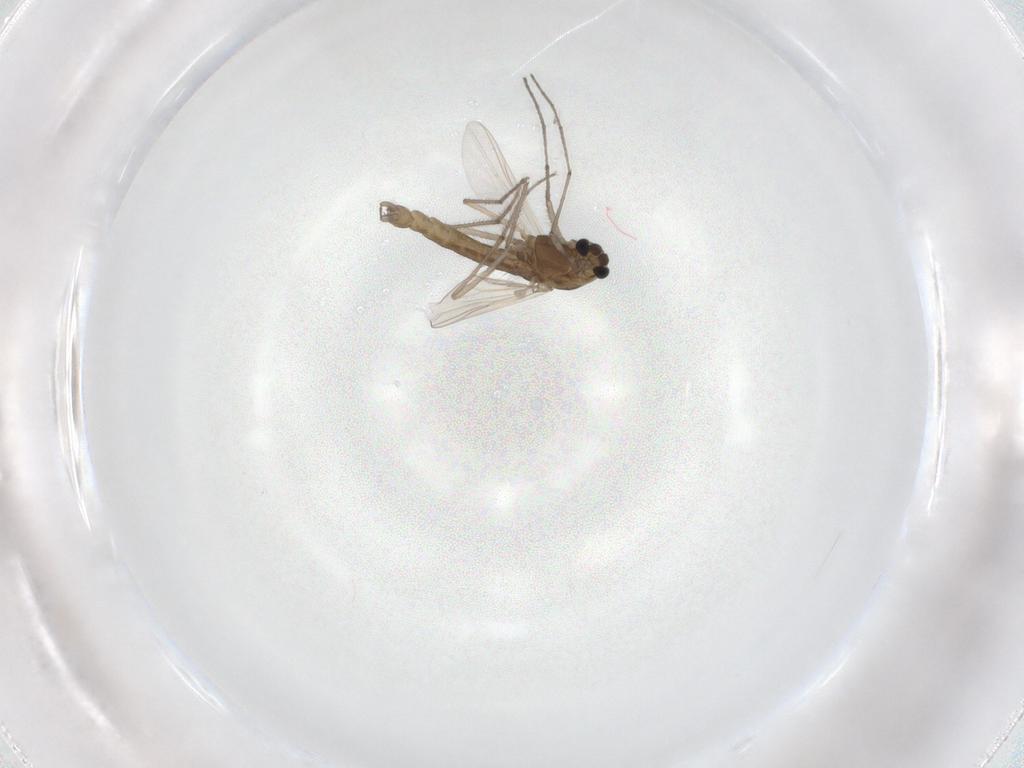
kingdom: Animalia
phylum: Arthropoda
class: Insecta
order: Diptera
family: Chironomidae
